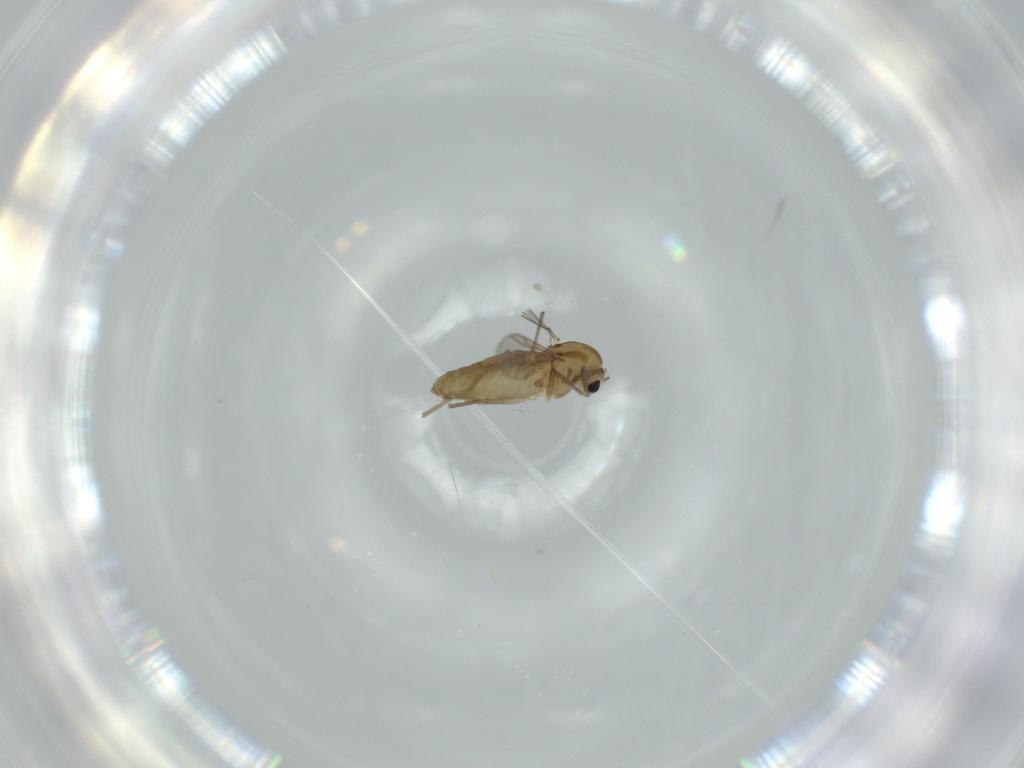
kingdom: Animalia
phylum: Arthropoda
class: Insecta
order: Diptera
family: Chironomidae
